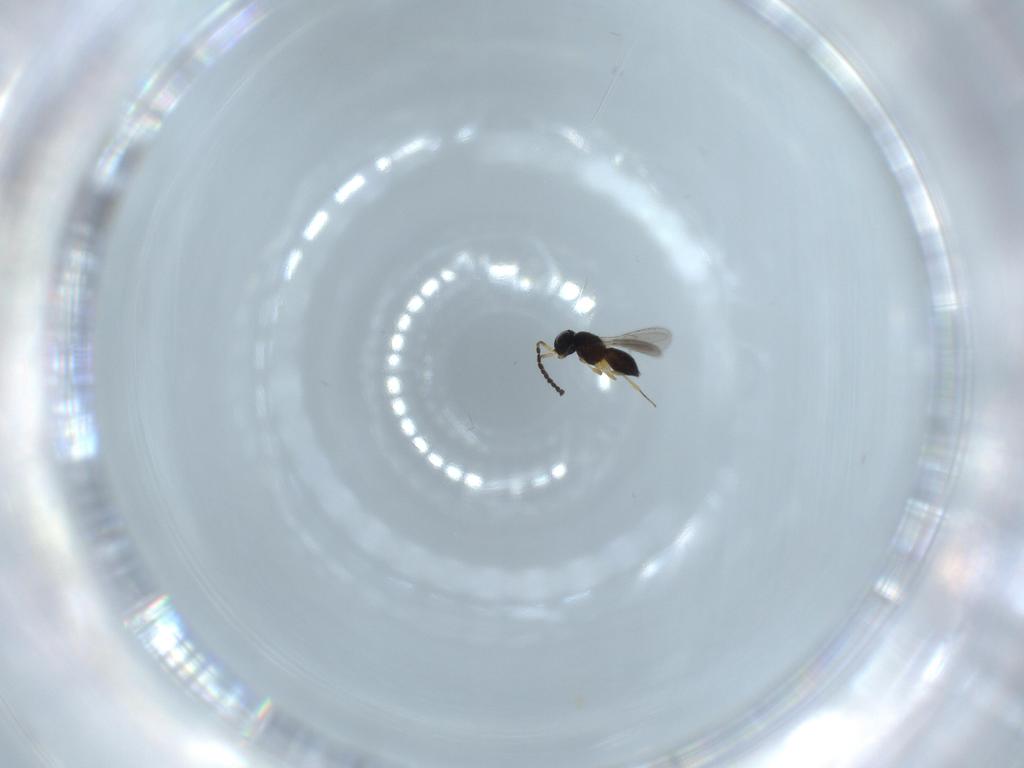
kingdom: Animalia
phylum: Arthropoda
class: Insecta
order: Hymenoptera
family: Scelionidae
